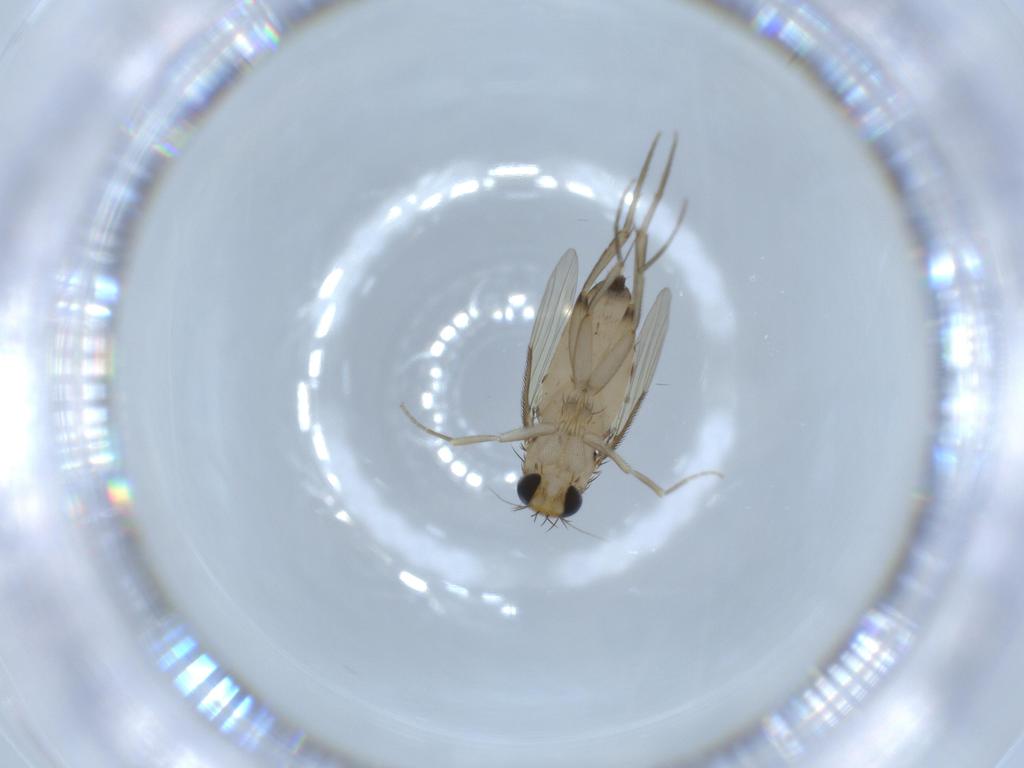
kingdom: Animalia
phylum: Arthropoda
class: Insecta
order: Diptera
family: Phoridae
